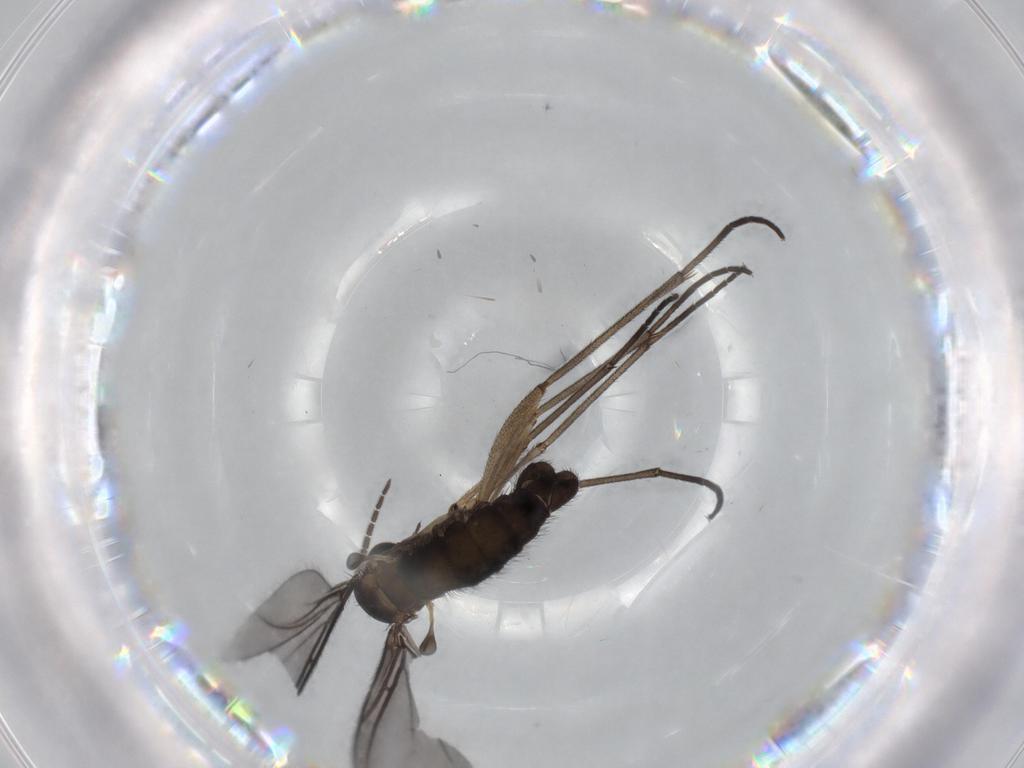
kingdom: Animalia
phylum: Arthropoda
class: Insecta
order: Diptera
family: Sciaridae
